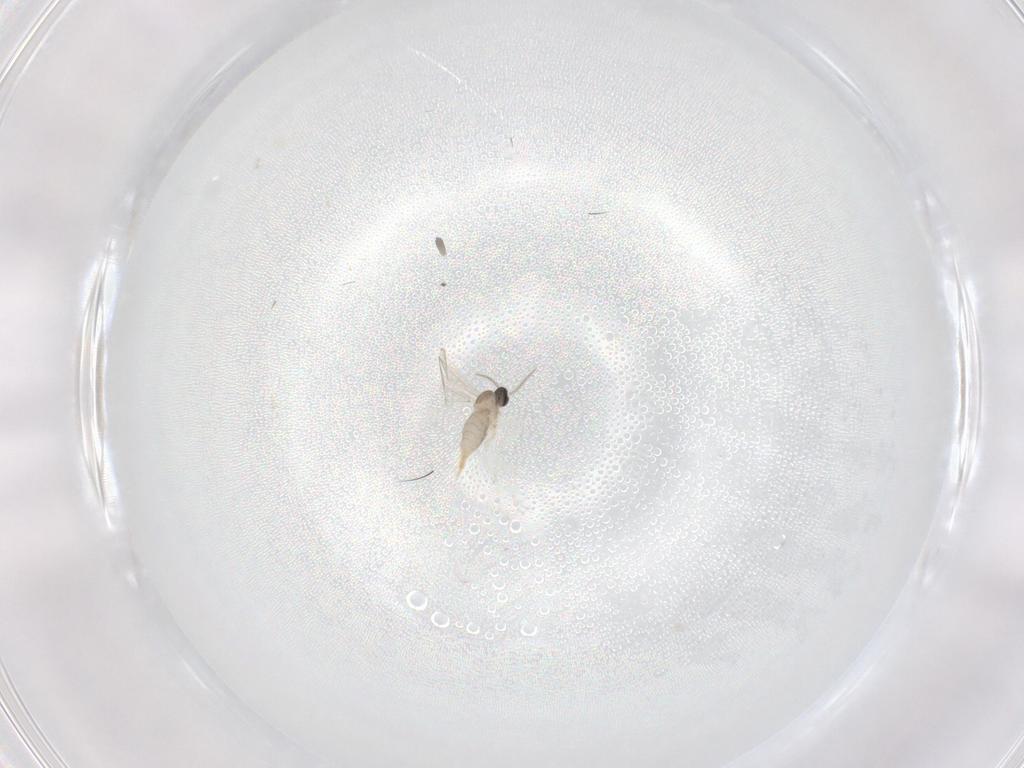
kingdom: Animalia
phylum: Arthropoda
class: Insecta
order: Diptera
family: Cecidomyiidae
